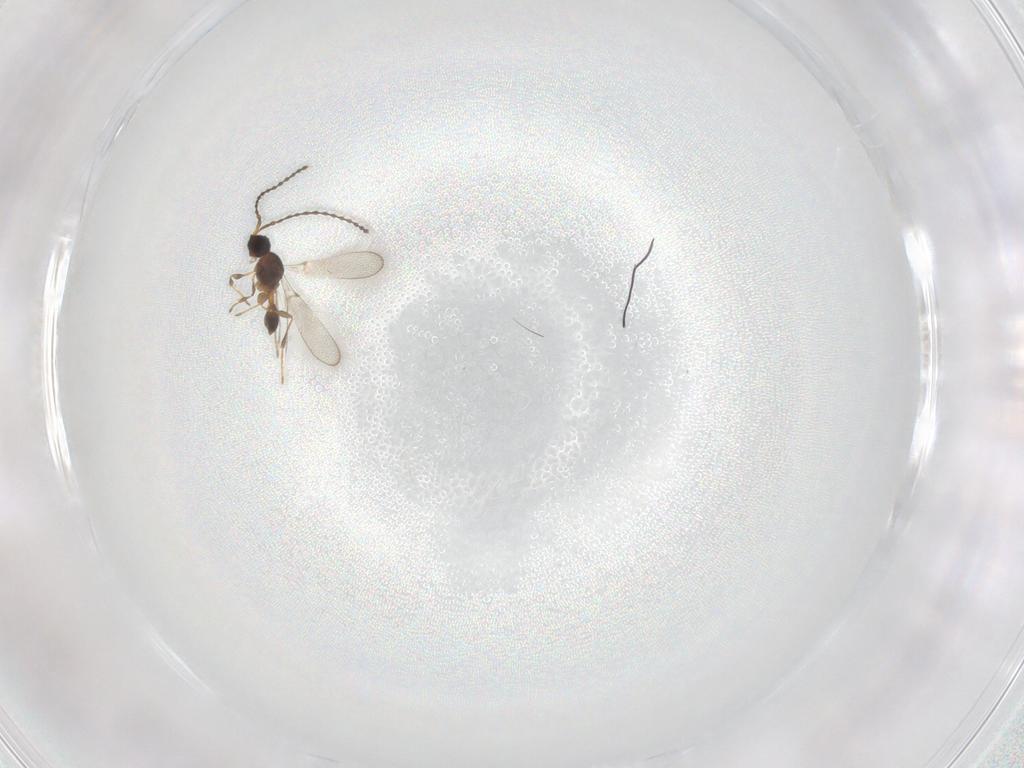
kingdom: Animalia
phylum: Arthropoda
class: Insecta
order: Hymenoptera
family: Diapriidae
